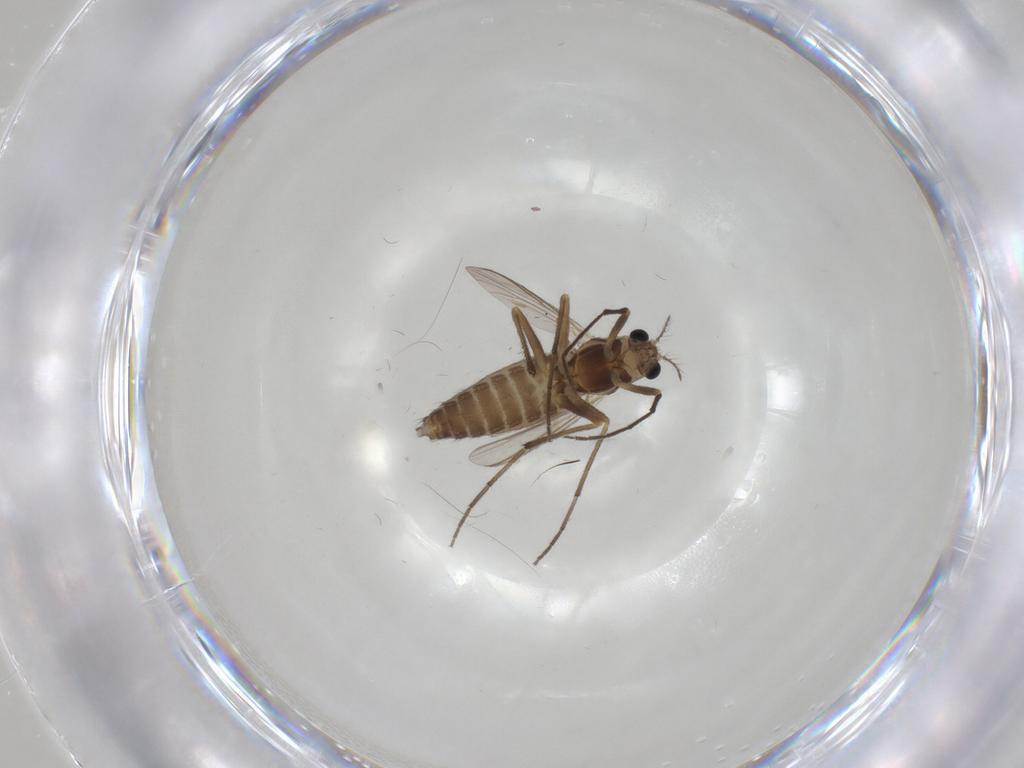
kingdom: Animalia
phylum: Arthropoda
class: Insecta
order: Diptera
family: Chironomidae
